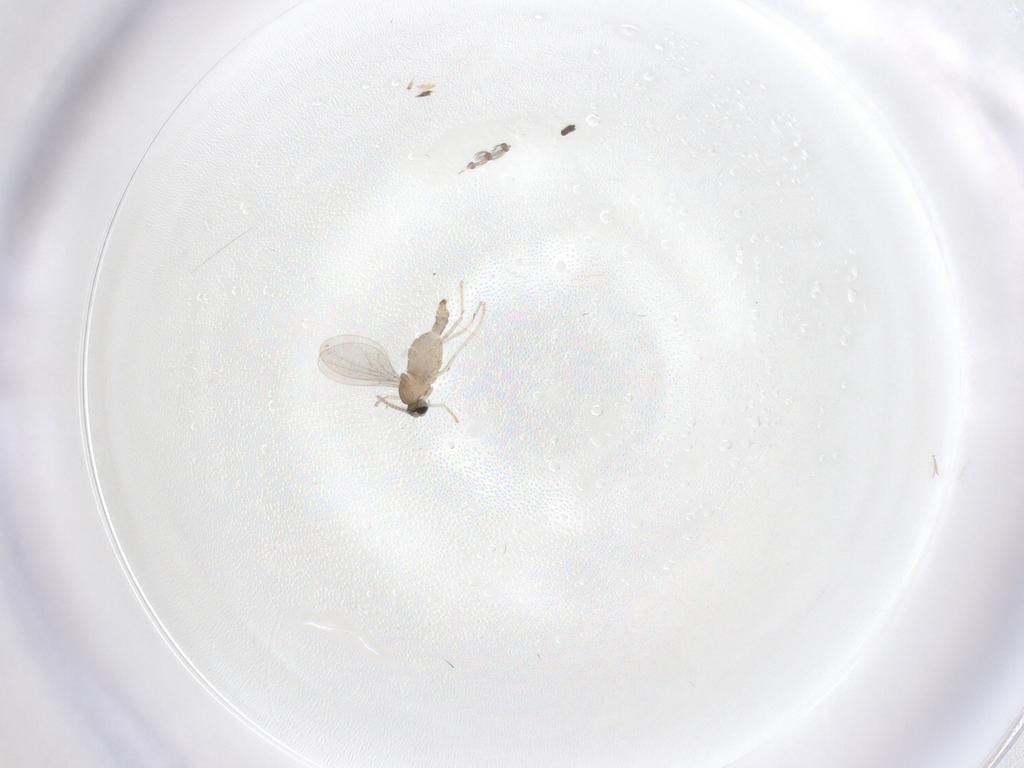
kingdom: Animalia
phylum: Arthropoda
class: Insecta
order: Diptera
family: Cecidomyiidae
